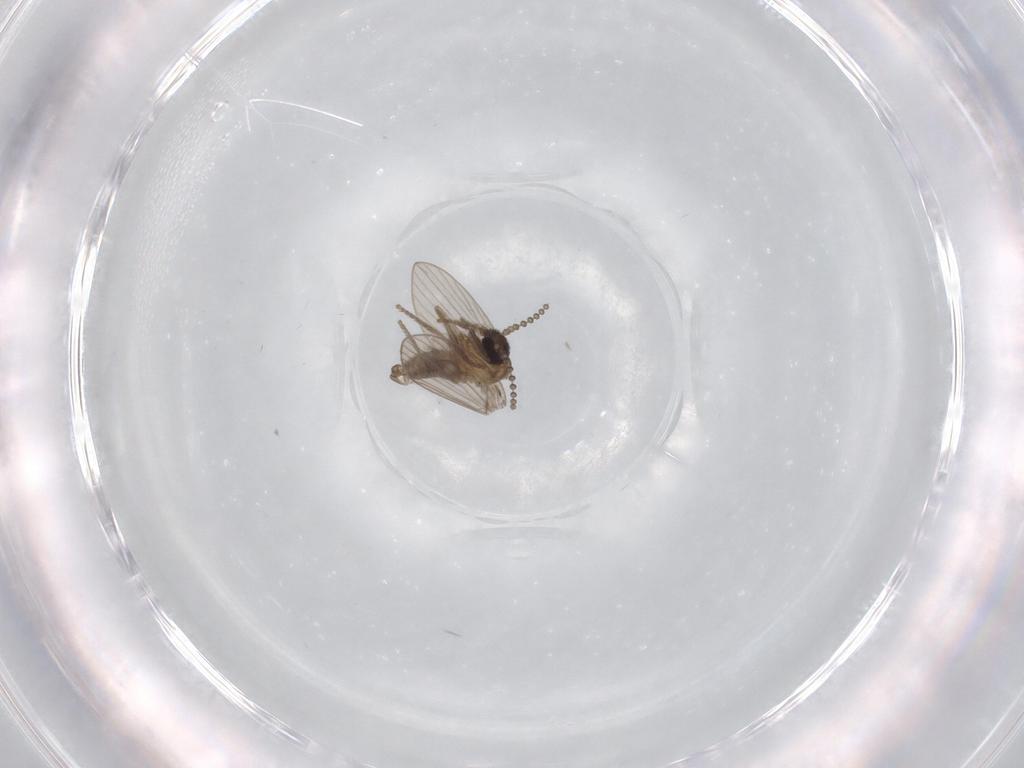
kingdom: Animalia
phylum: Arthropoda
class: Insecta
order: Diptera
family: Psychodidae
